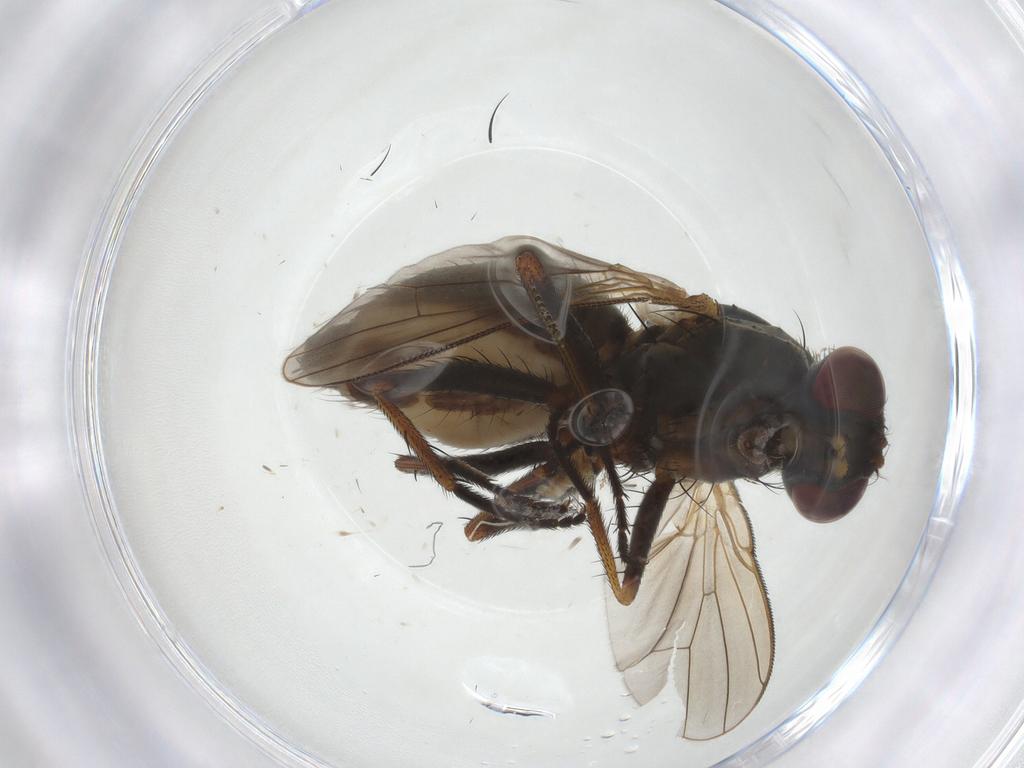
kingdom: Animalia
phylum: Arthropoda
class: Insecta
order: Diptera
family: Muscidae
